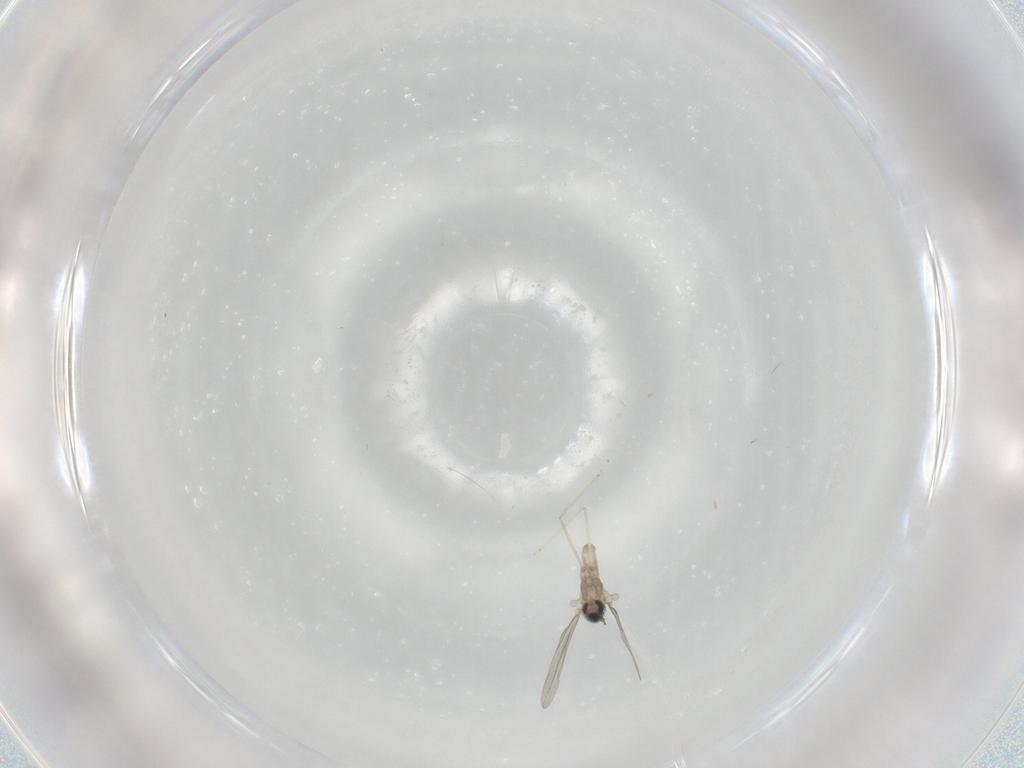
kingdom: Animalia
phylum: Arthropoda
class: Insecta
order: Diptera
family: Cecidomyiidae
